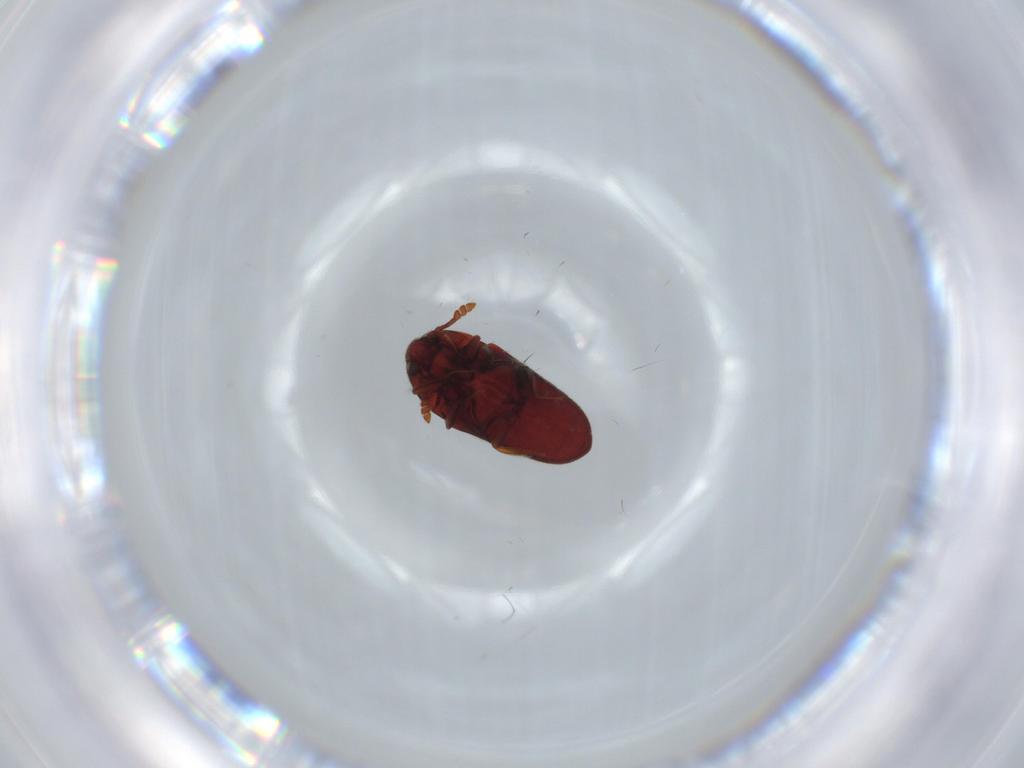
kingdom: Animalia
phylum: Arthropoda
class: Insecta
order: Coleoptera
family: Throscidae
